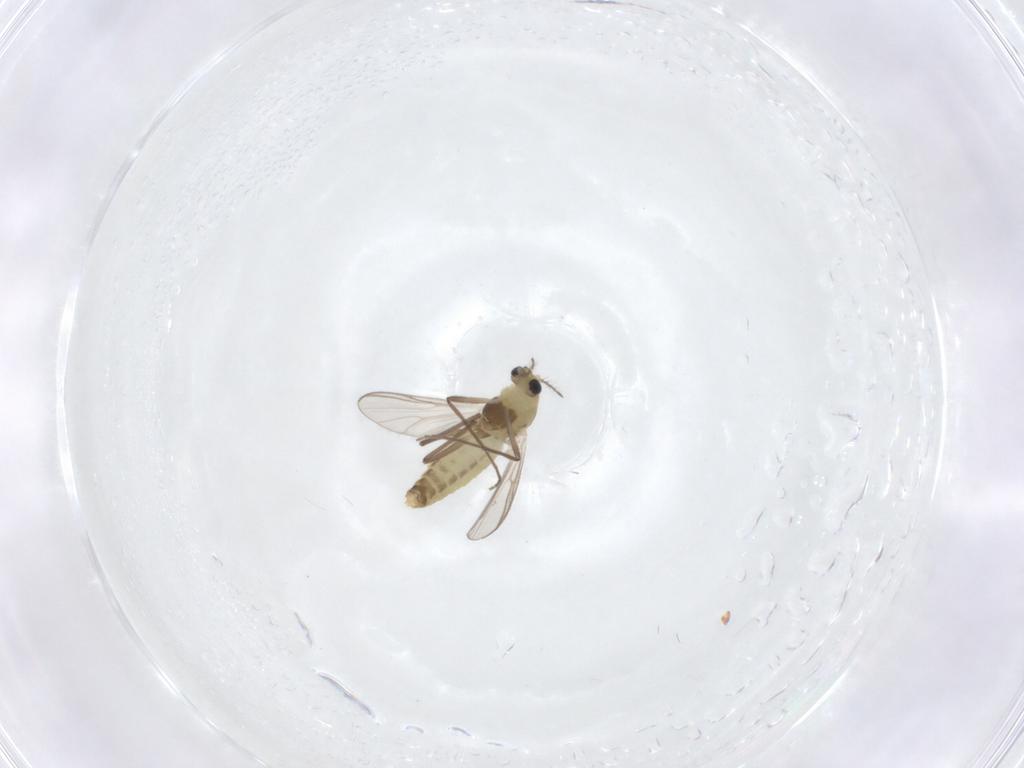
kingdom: Animalia
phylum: Arthropoda
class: Insecta
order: Diptera
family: Chironomidae
